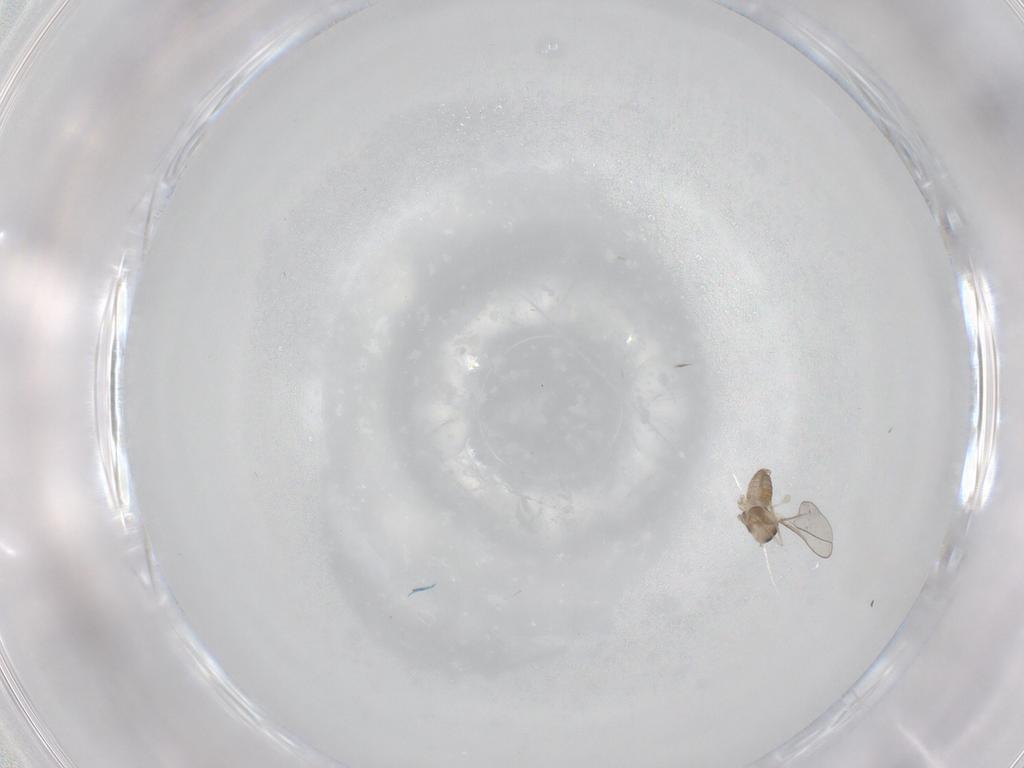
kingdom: Animalia
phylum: Arthropoda
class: Insecta
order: Diptera
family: Cecidomyiidae
